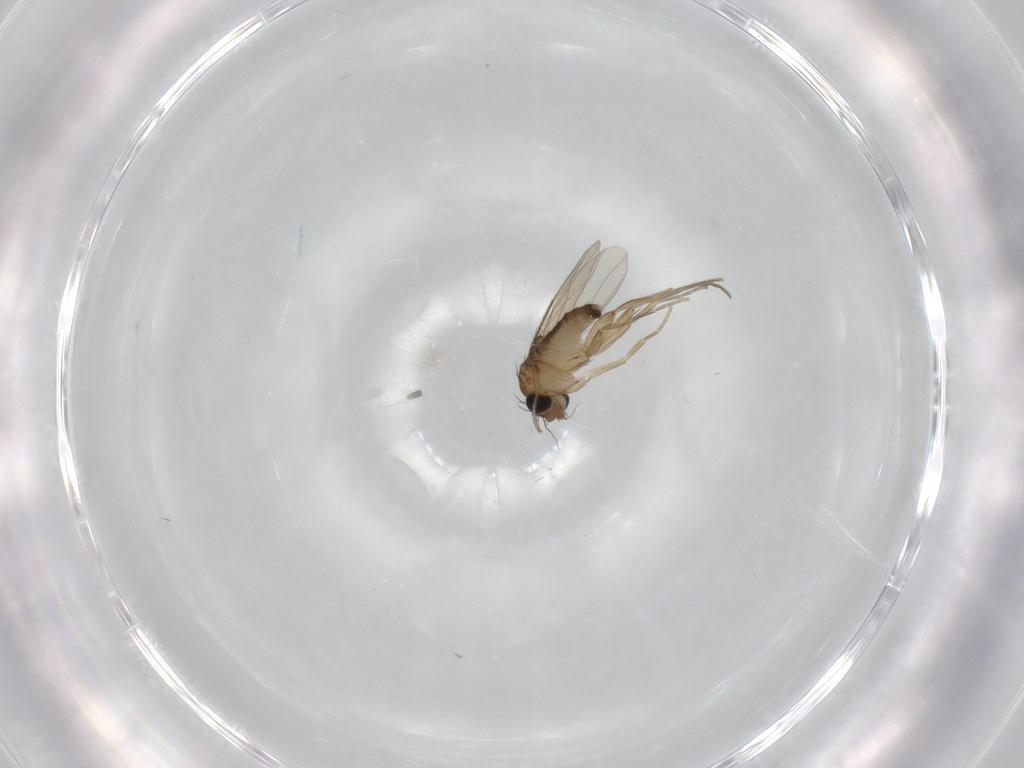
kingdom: Animalia
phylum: Arthropoda
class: Insecta
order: Diptera
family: Phoridae
